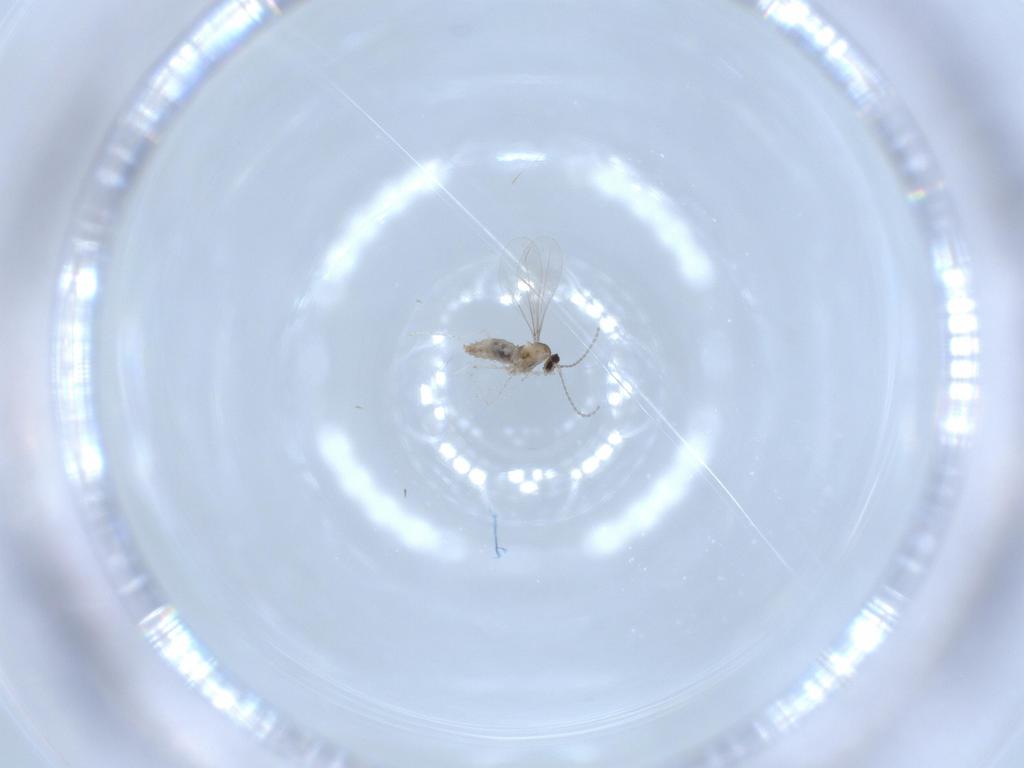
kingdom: Animalia
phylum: Arthropoda
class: Insecta
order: Diptera
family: Cecidomyiidae
